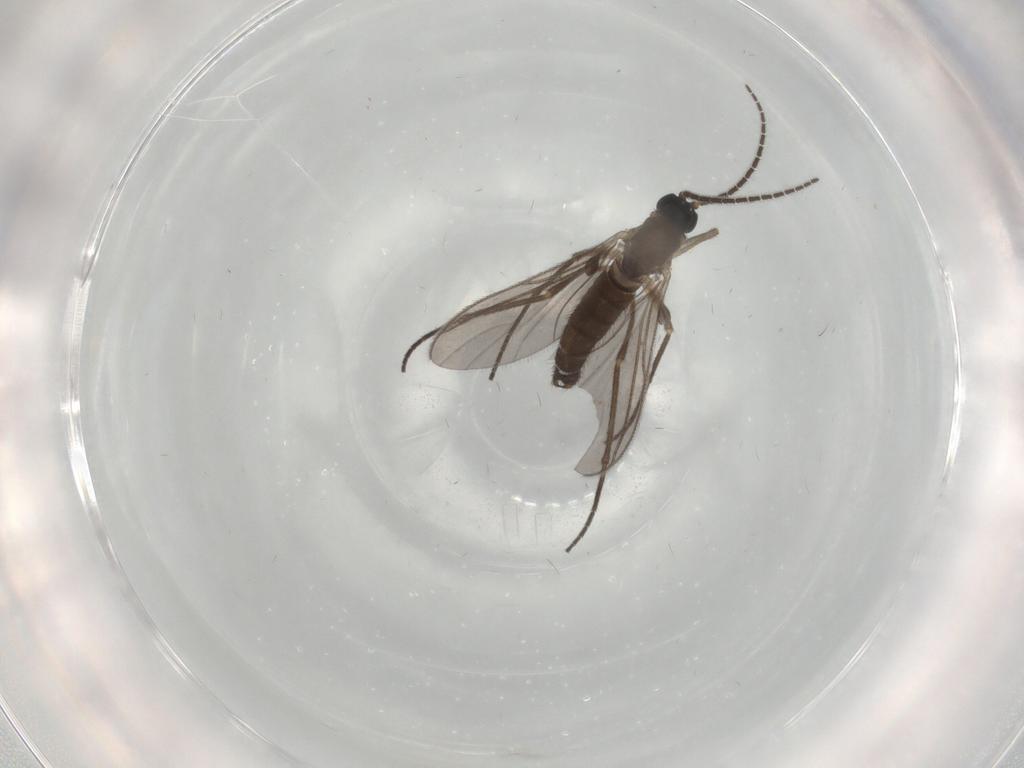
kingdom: Animalia
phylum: Arthropoda
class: Insecta
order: Diptera
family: Sciaridae
